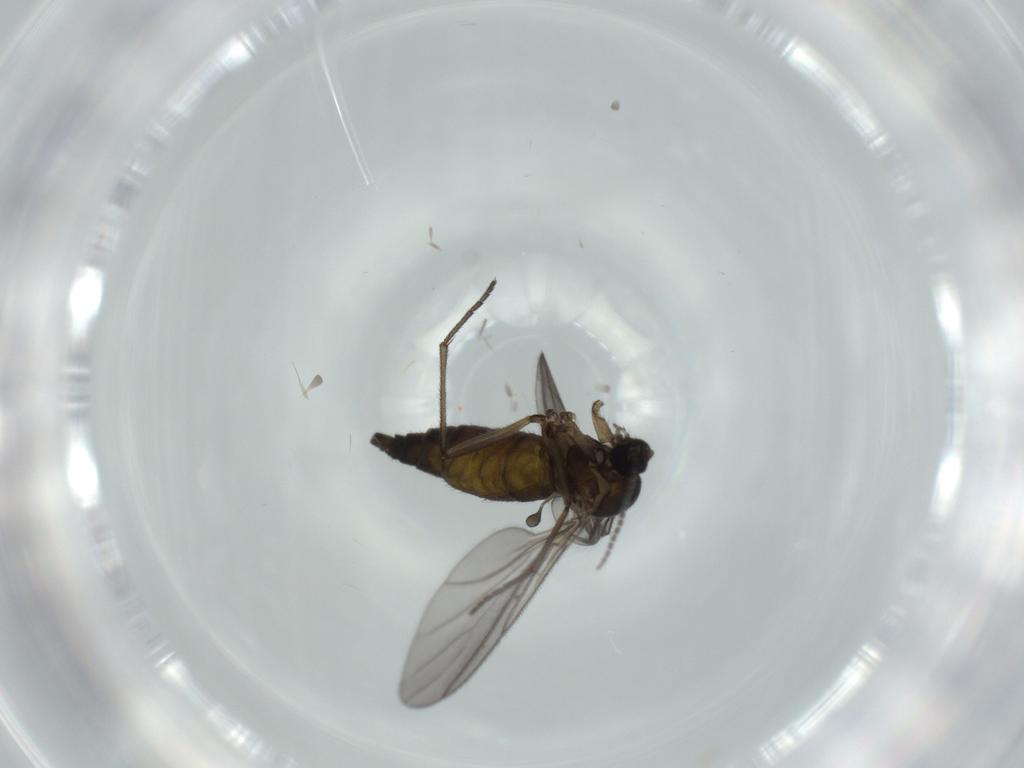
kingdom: Animalia
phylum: Arthropoda
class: Insecta
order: Diptera
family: Sciaridae
